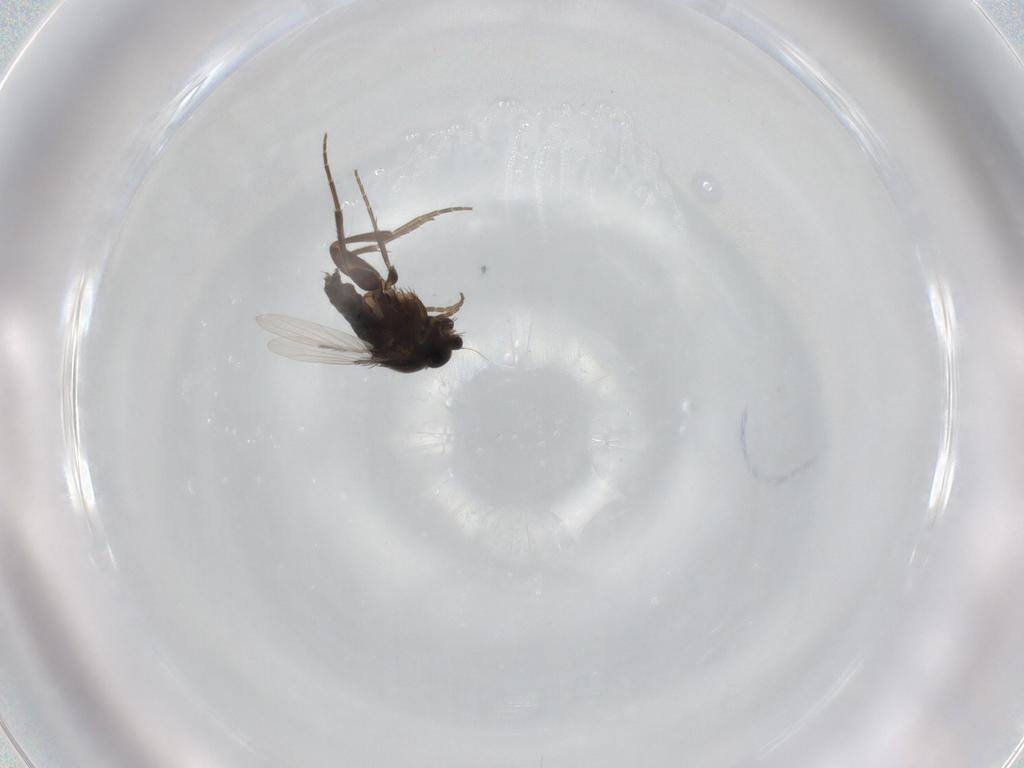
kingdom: Animalia
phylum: Arthropoda
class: Insecta
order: Diptera
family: Phoridae
